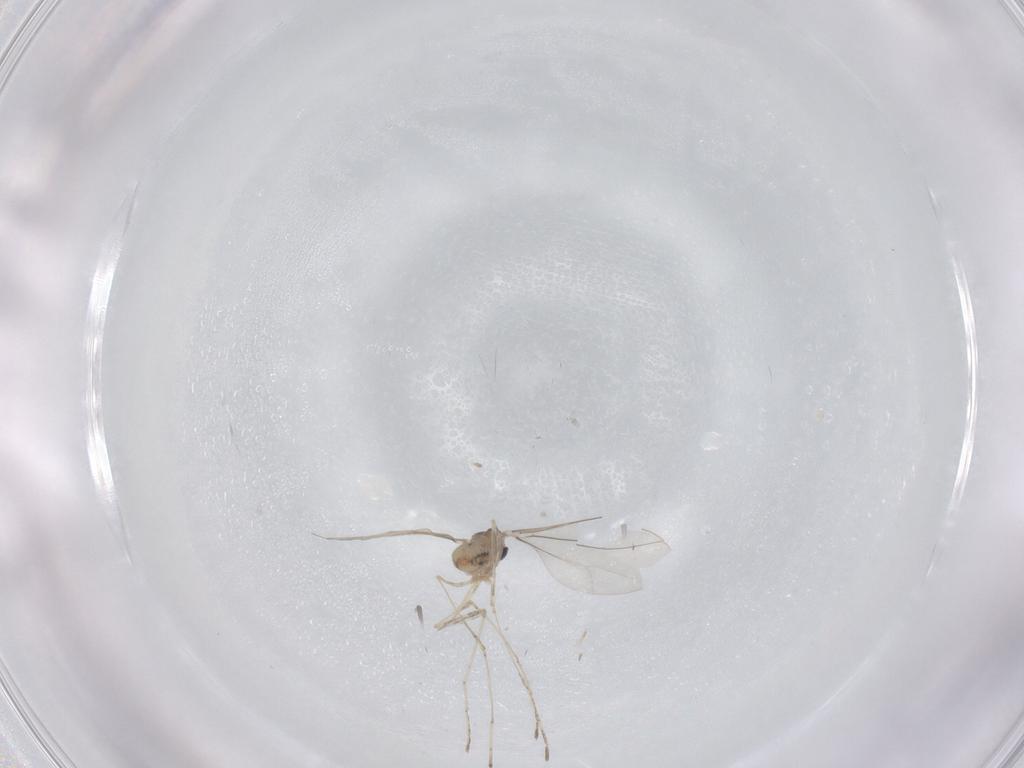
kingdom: Animalia
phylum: Arthropoda
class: Insecta
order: Diptera
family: Cecidomyiidae
